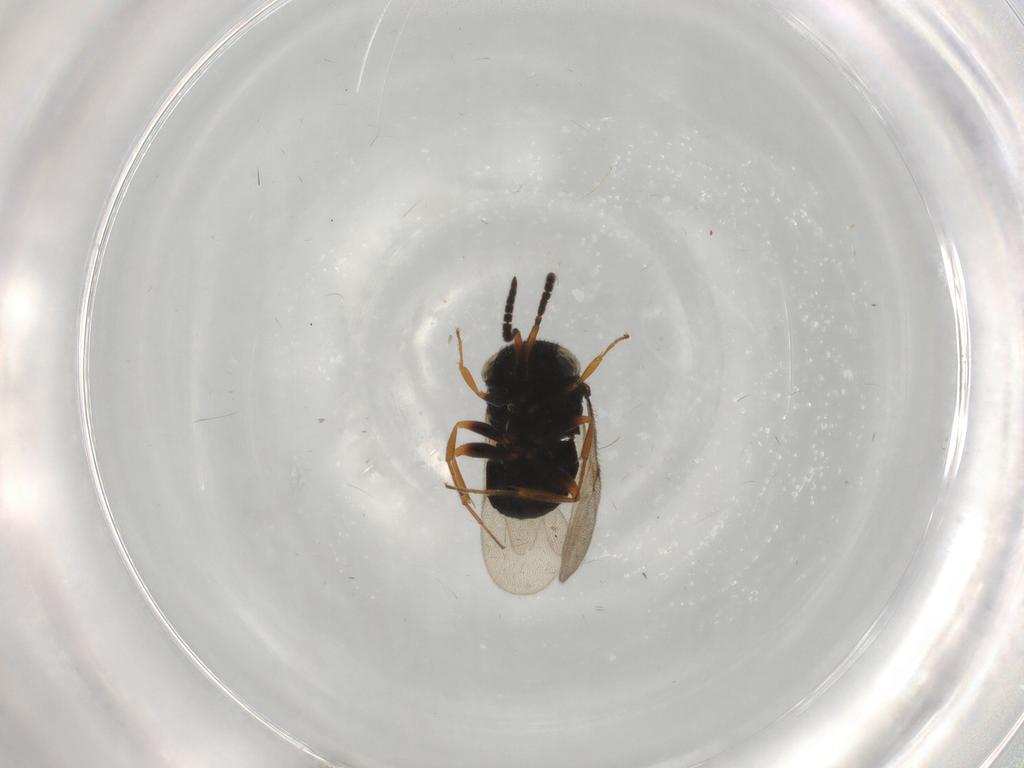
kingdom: Animalia
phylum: Arthropoda
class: Insecta
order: Hymenoptera
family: Scelionidae
